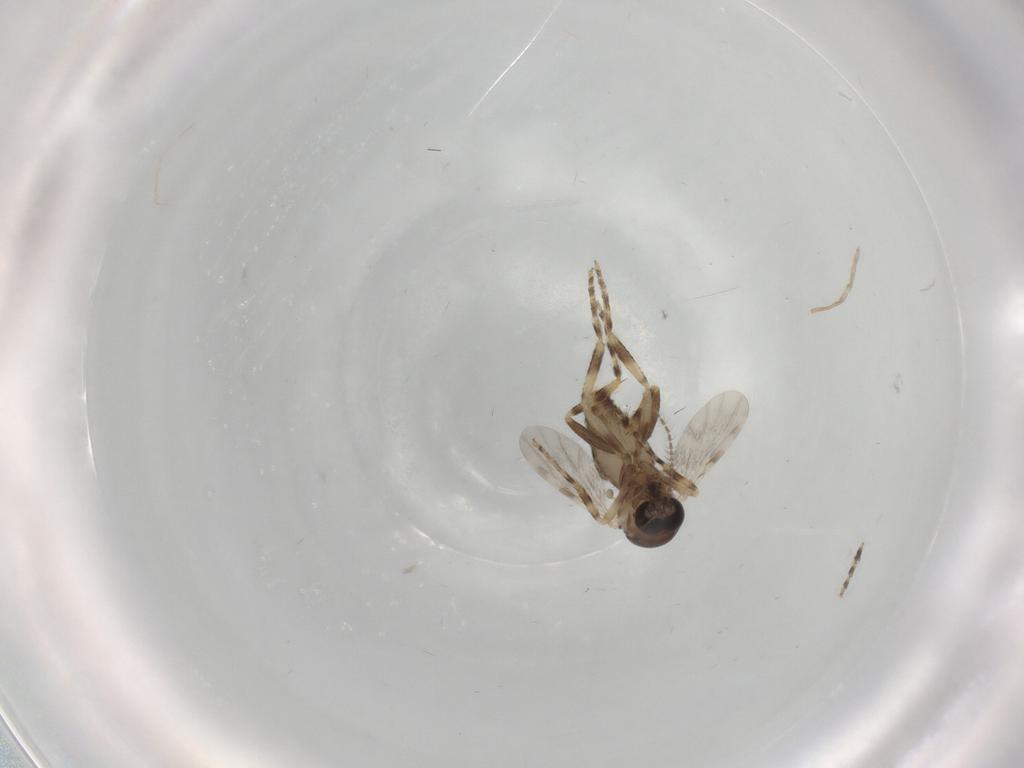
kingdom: Animalia
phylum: Arthropoda
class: Insecta
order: Diptera
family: Ceratopogonidae
